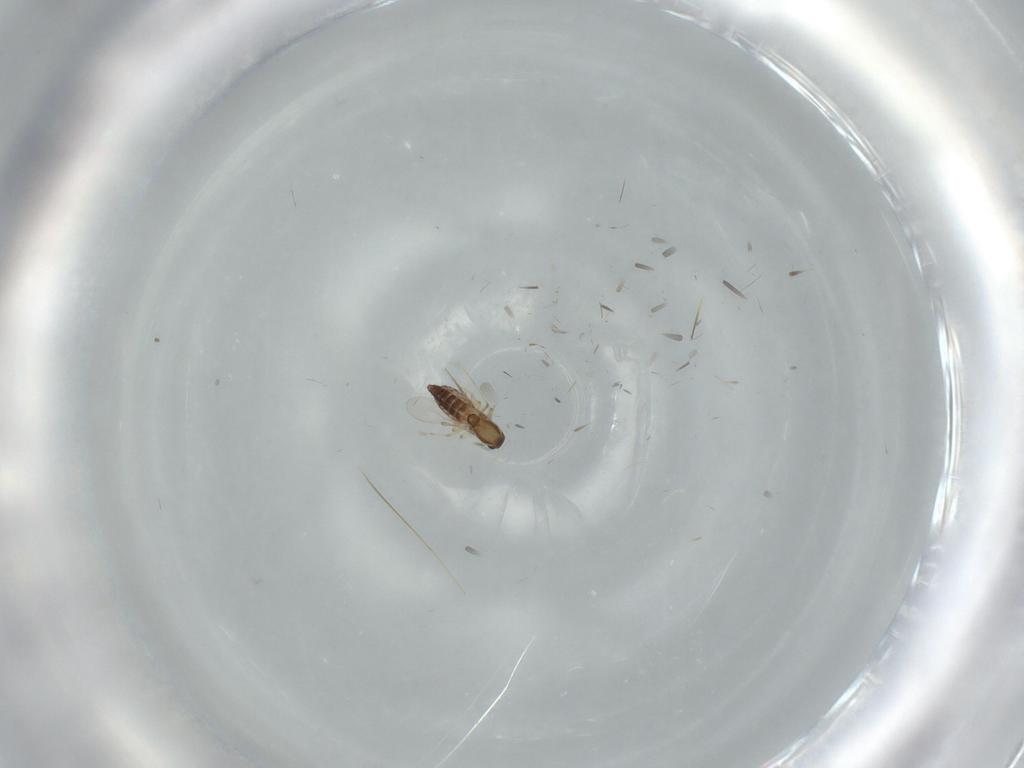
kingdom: Animalia
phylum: Arthropoda
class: Insecta
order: Diptera
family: Chironomidae
